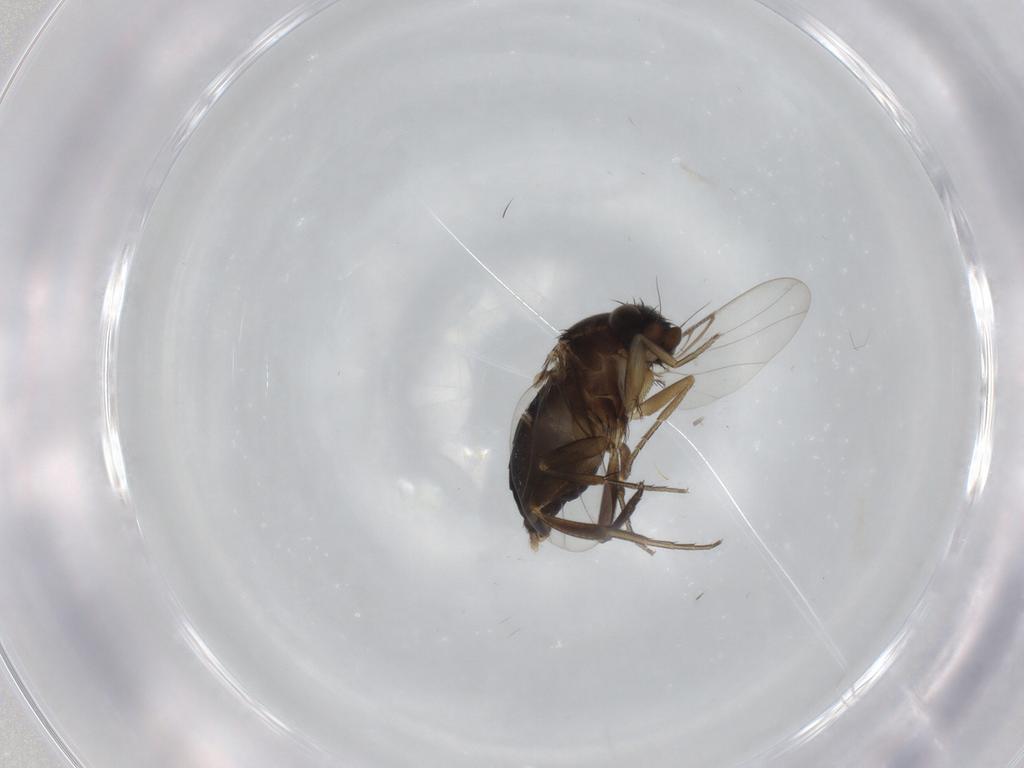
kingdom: Animalia
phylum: Arthropoda
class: Insecta
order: Diptera
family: Phoridae
